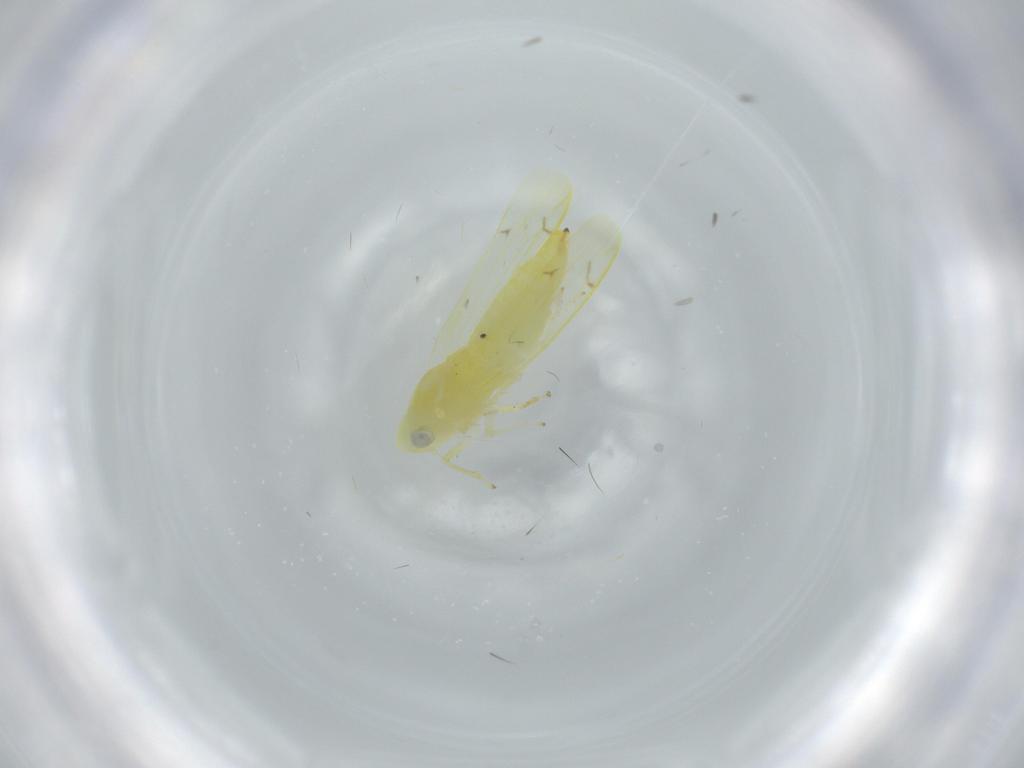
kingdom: Animalia
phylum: Arthropoda
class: Insecta
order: Hemiptera
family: Cicadellidae
